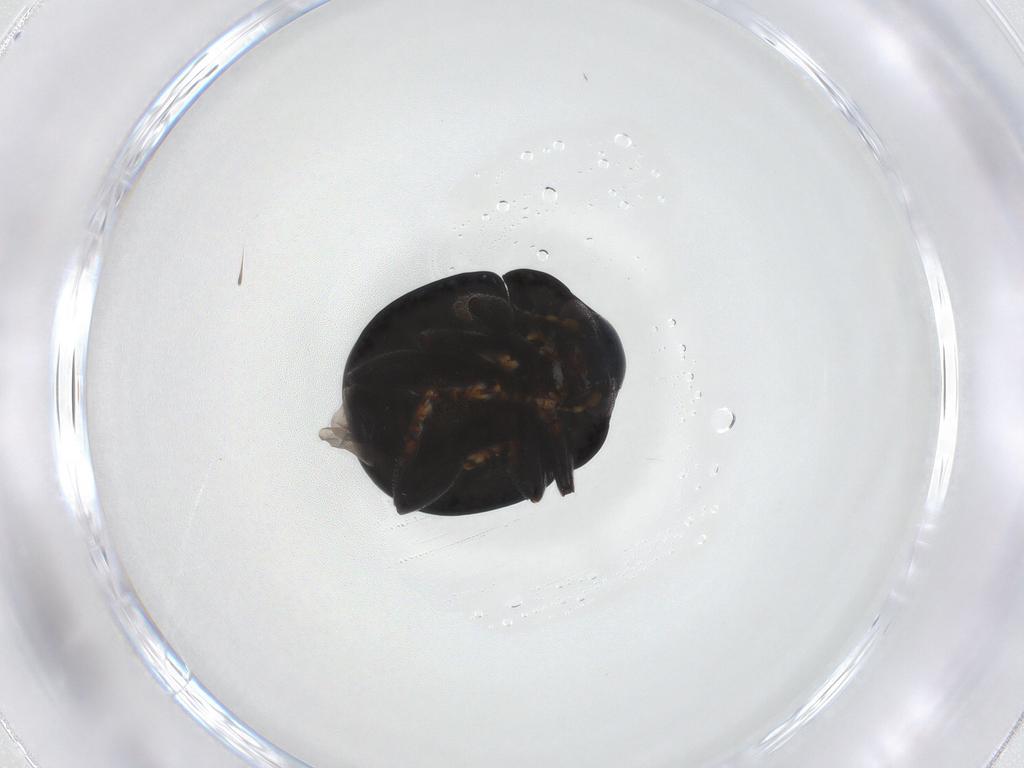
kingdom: Animalia
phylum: Arthropoda
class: Insecta
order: Coleoptera
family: Chrysomelidae
